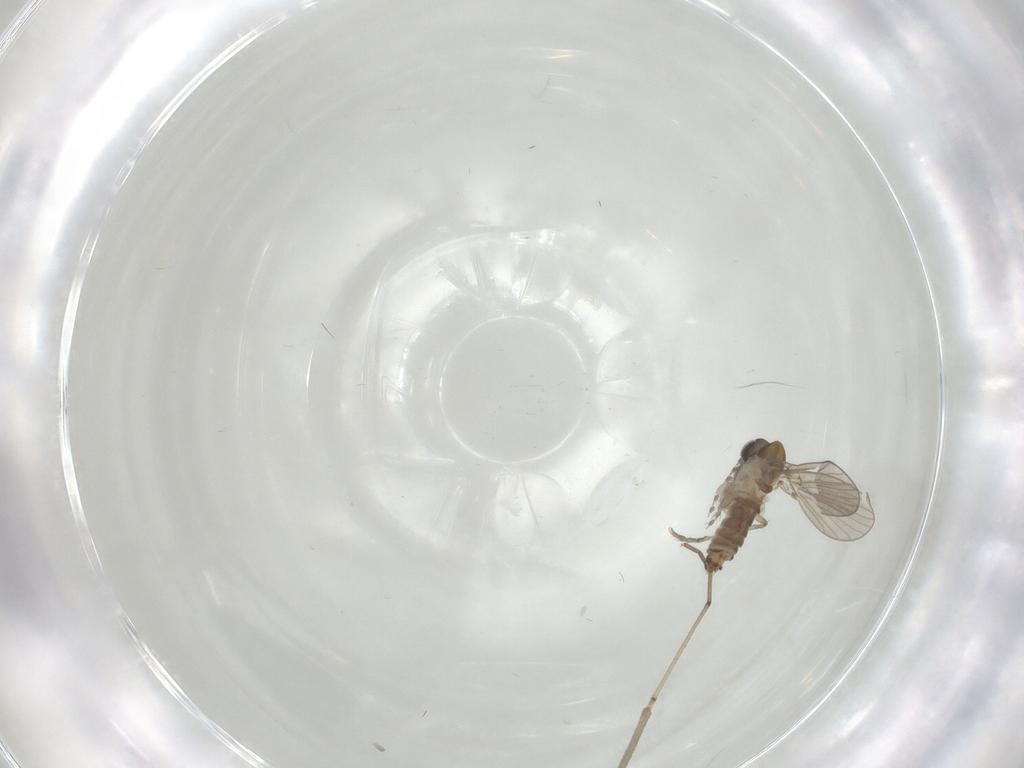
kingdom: Animalia
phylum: Arthropoda
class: Insecta
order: Diptera
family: Cecidomyiidae
